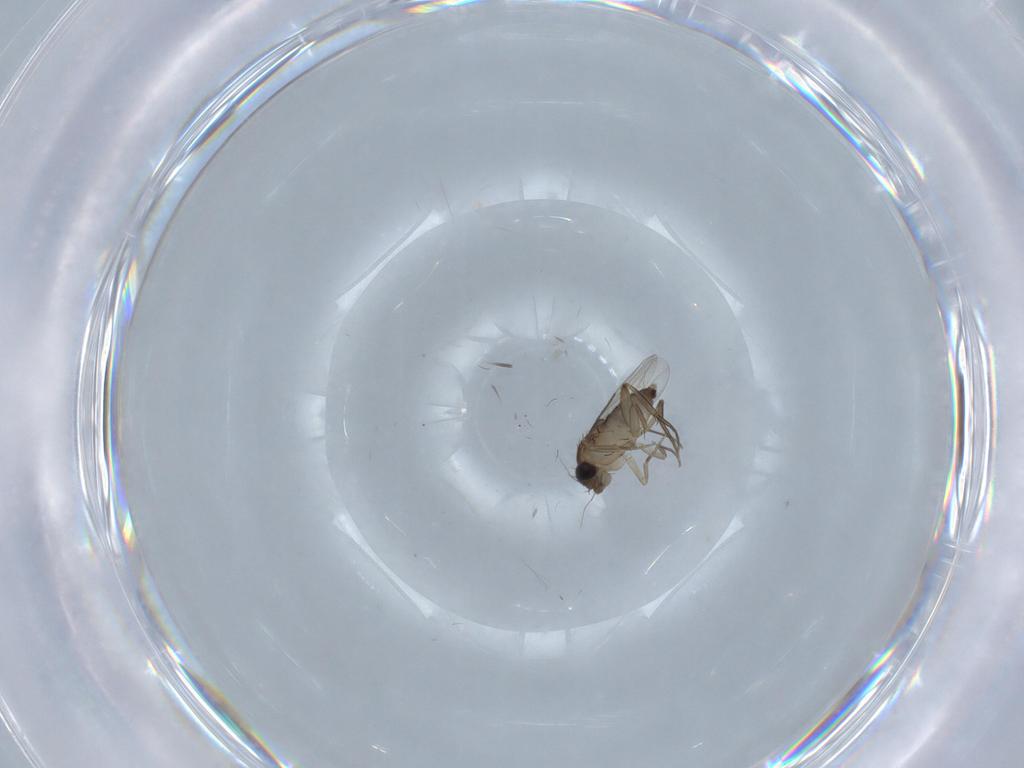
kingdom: Animalia
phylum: Arthropoda
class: Insecta
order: Diptera
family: Phoridae
